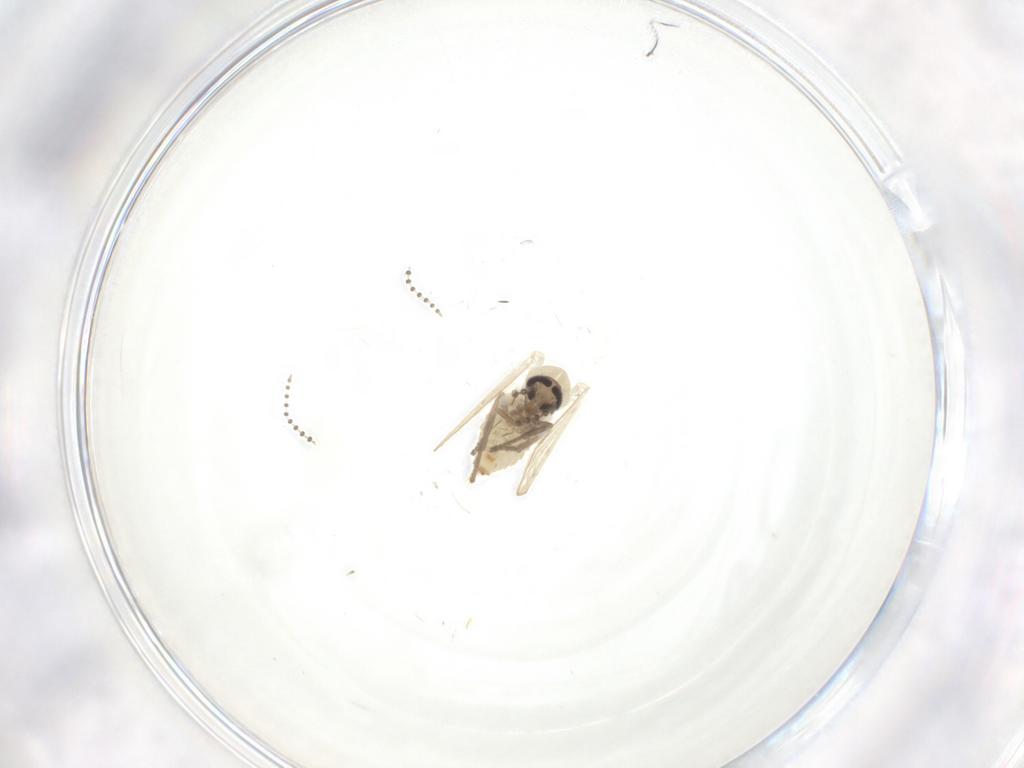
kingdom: Animalia
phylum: Arthropoda
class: Insecta
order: Diptera
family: Psychodidae
